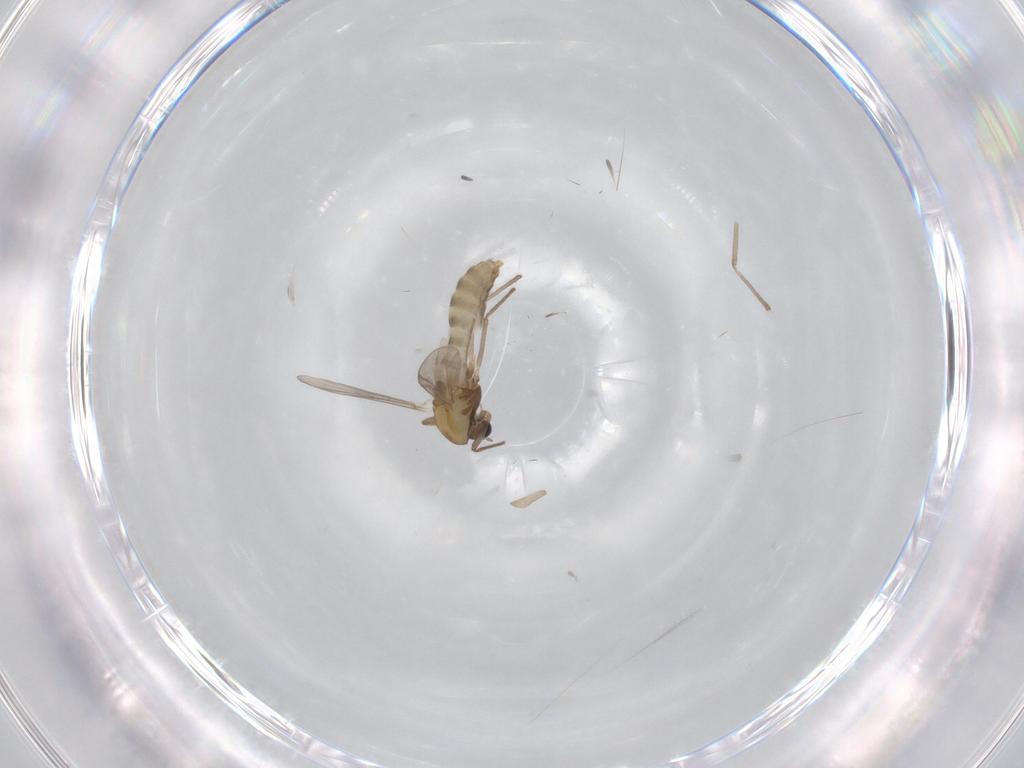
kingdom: Animalia
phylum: Arthropoda
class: Insecta
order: Diptera
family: Chironomidae
